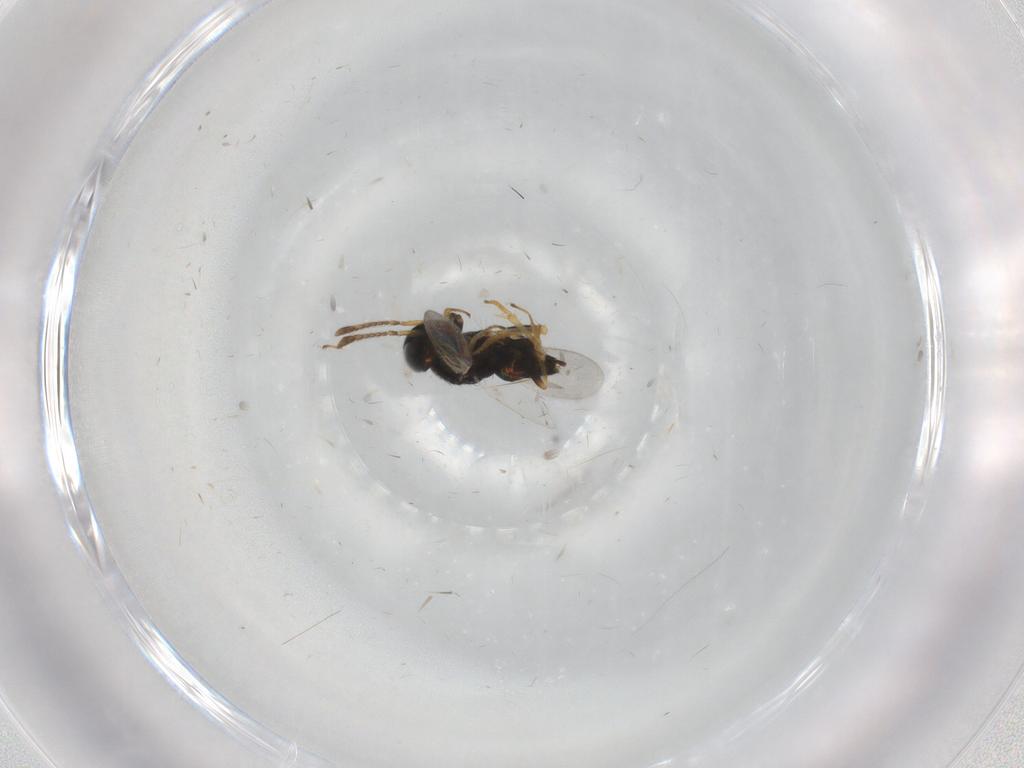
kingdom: Animalia
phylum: Arthropoda
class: Insecta
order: Hymenoptera
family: Encyrtidae
